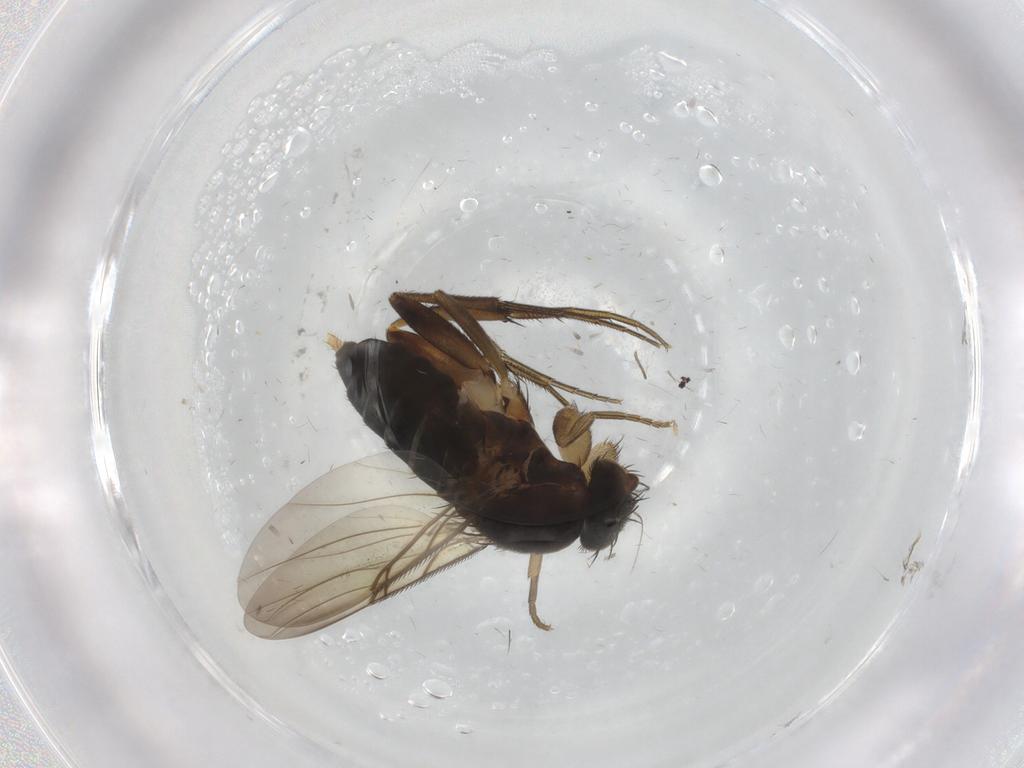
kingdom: Animalia
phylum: Arthropoda
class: Insecta
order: Diptera
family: Phoridae
